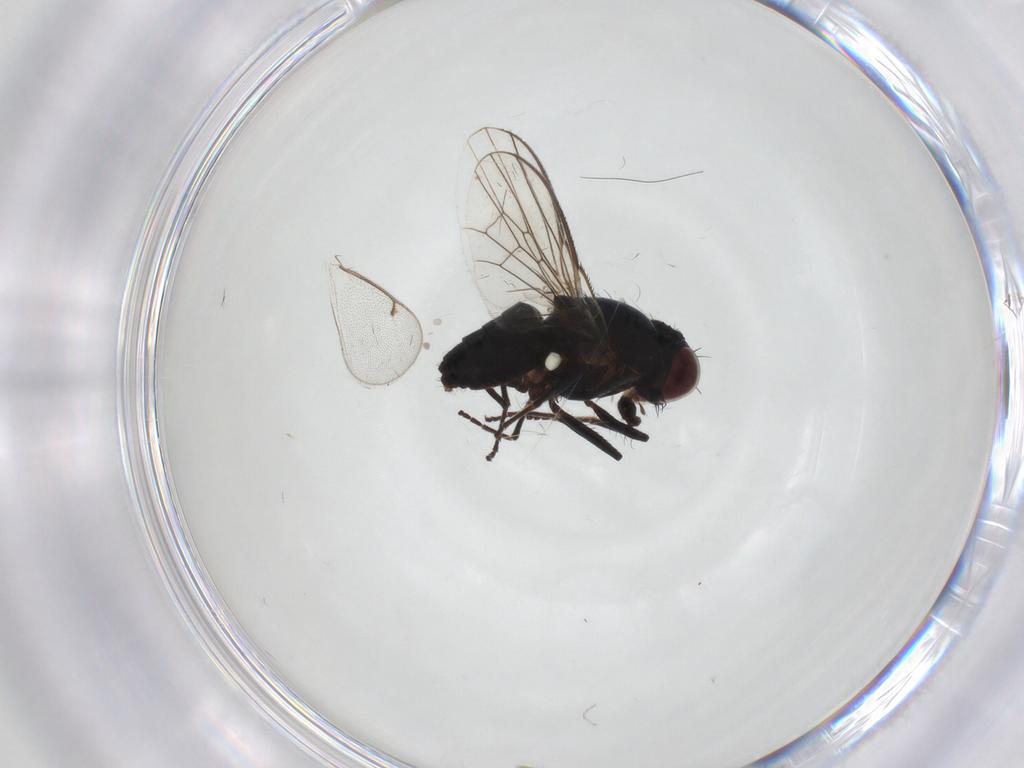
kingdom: Animalia
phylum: Arthropoda
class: Insecta
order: Diptera
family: Carnidae
